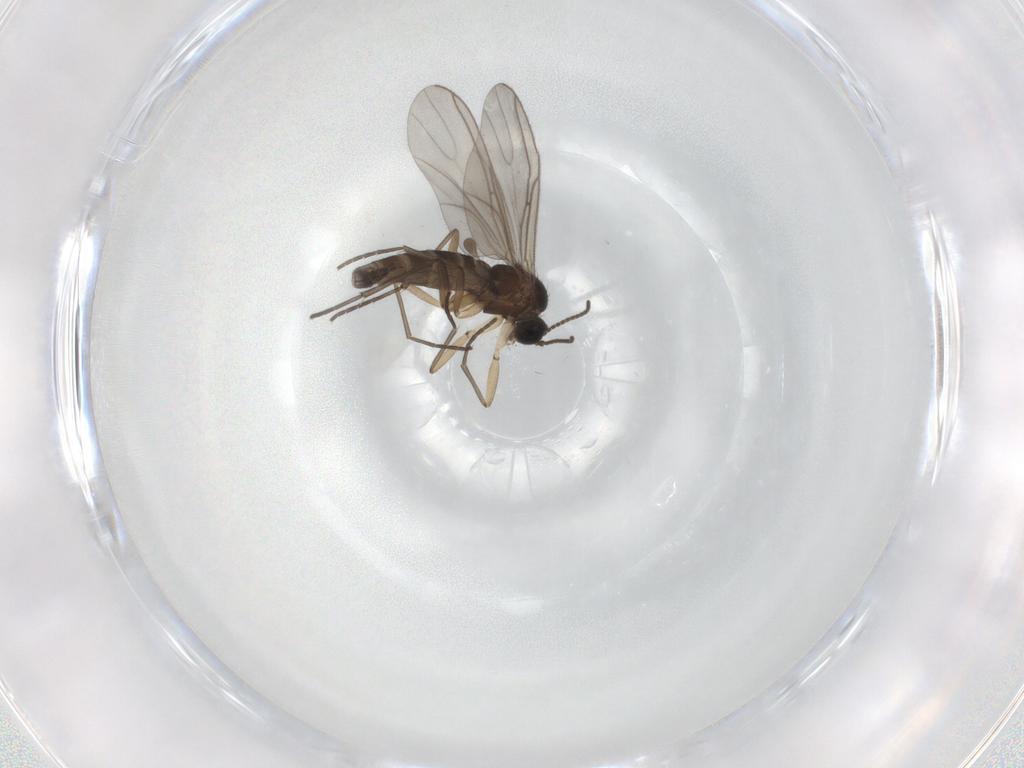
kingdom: Animalia
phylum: Arthropoda
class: Insecta
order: Diptera
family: Sciaridae
